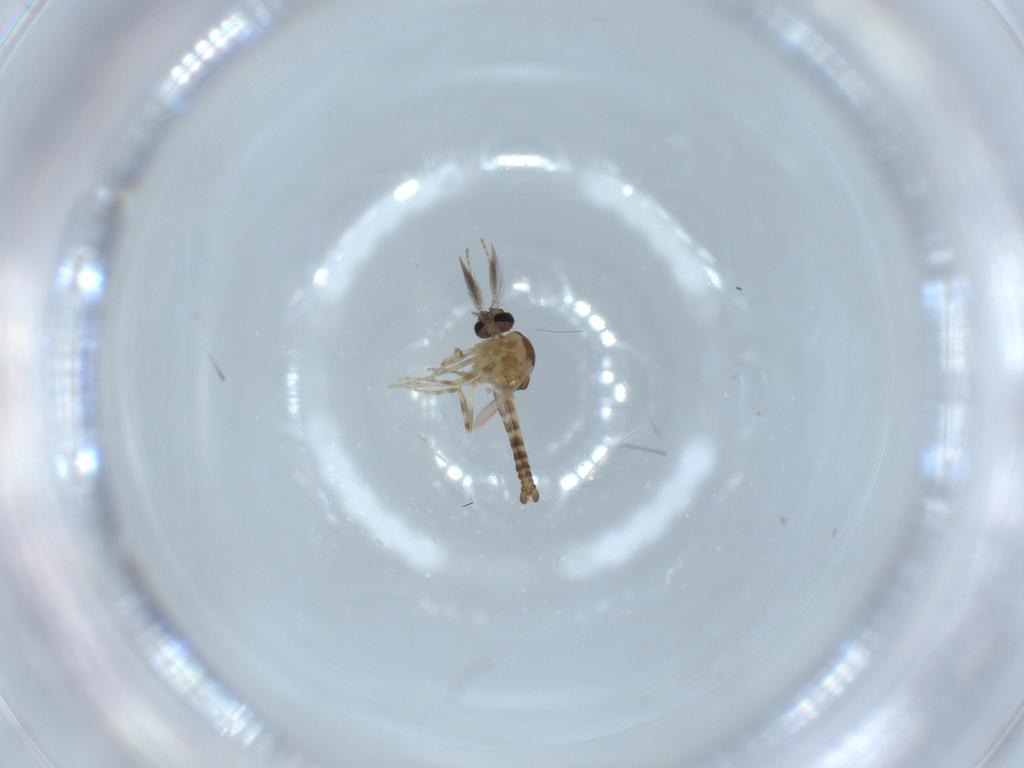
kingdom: Animalia
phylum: Arthropoda
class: Insecta
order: Diptera
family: Ceratopogonidae
